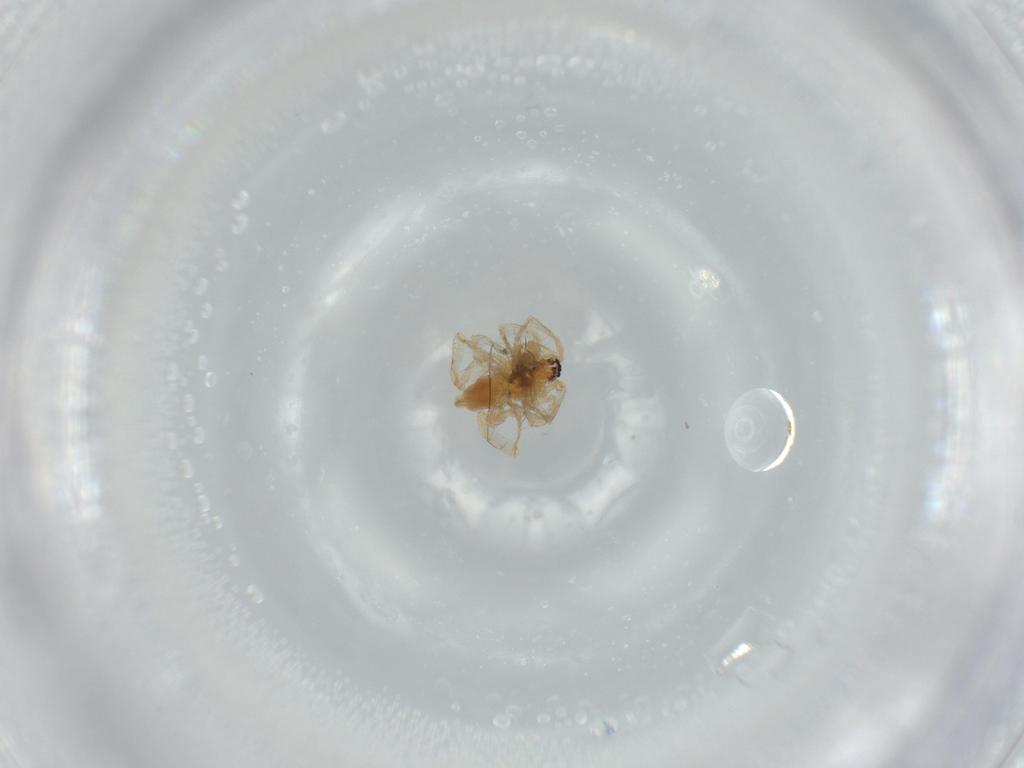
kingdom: Animalia
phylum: Arthropoda
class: Arachnida
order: Araneae
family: Anyphaenidae
